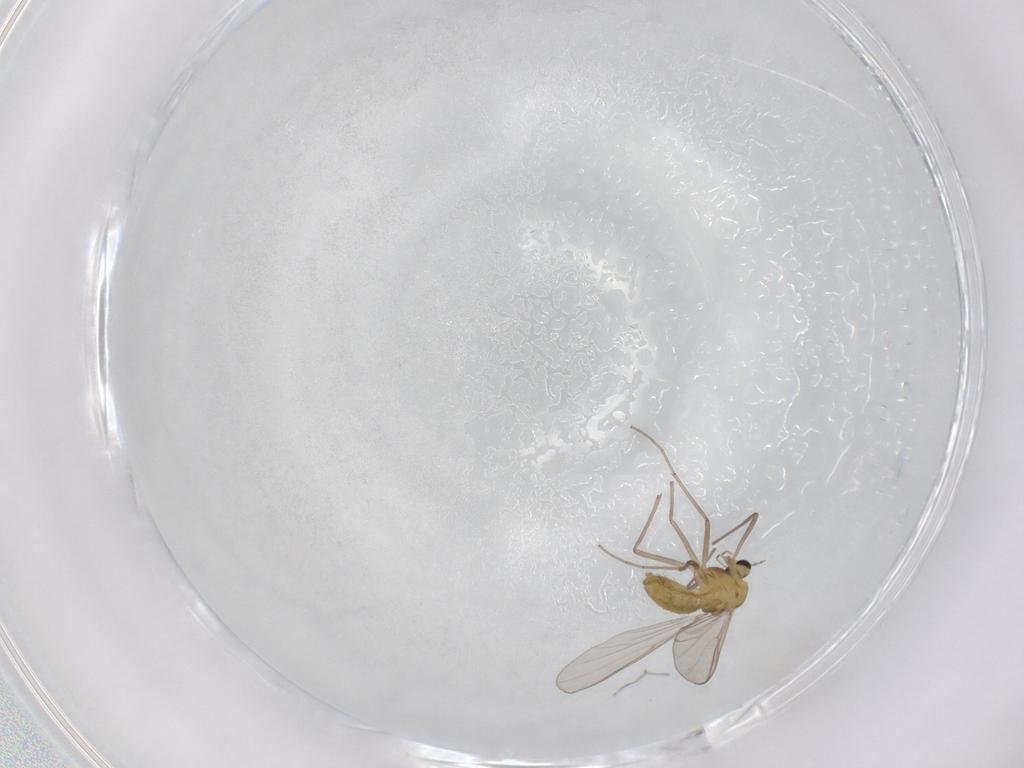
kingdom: Animalia
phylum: Arthropoda
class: Insecta
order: Diptera
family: Chironomidae
